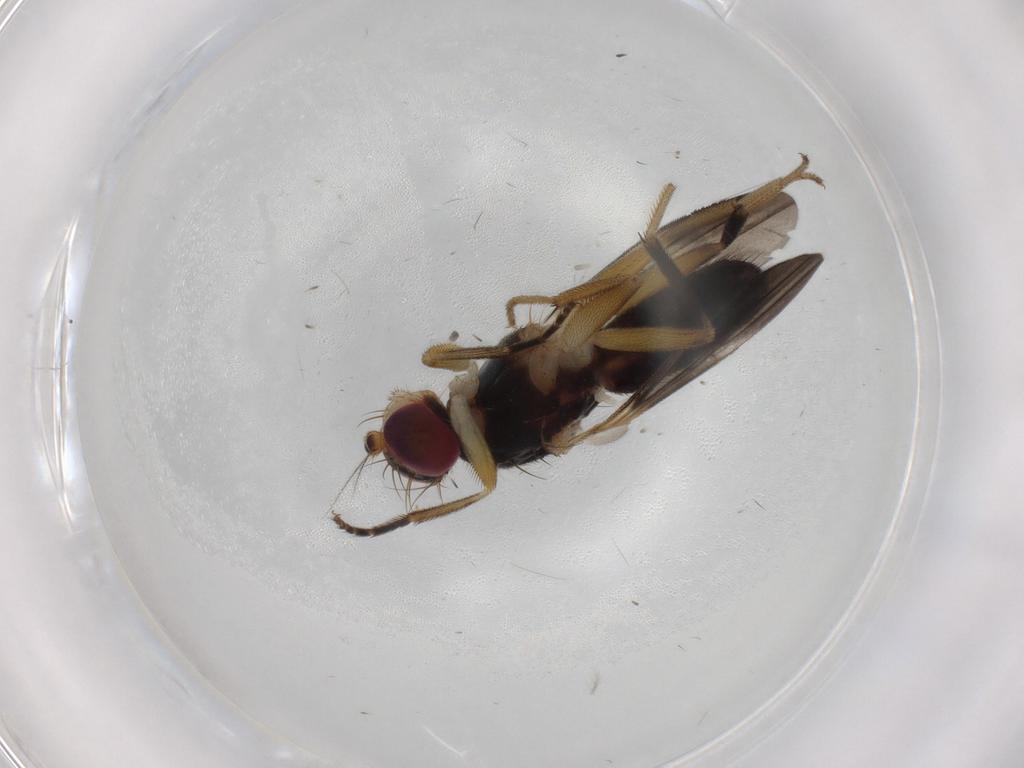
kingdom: Animalia
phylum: Arthropoda
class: Insecta
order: Diptera
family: Clusiidae
